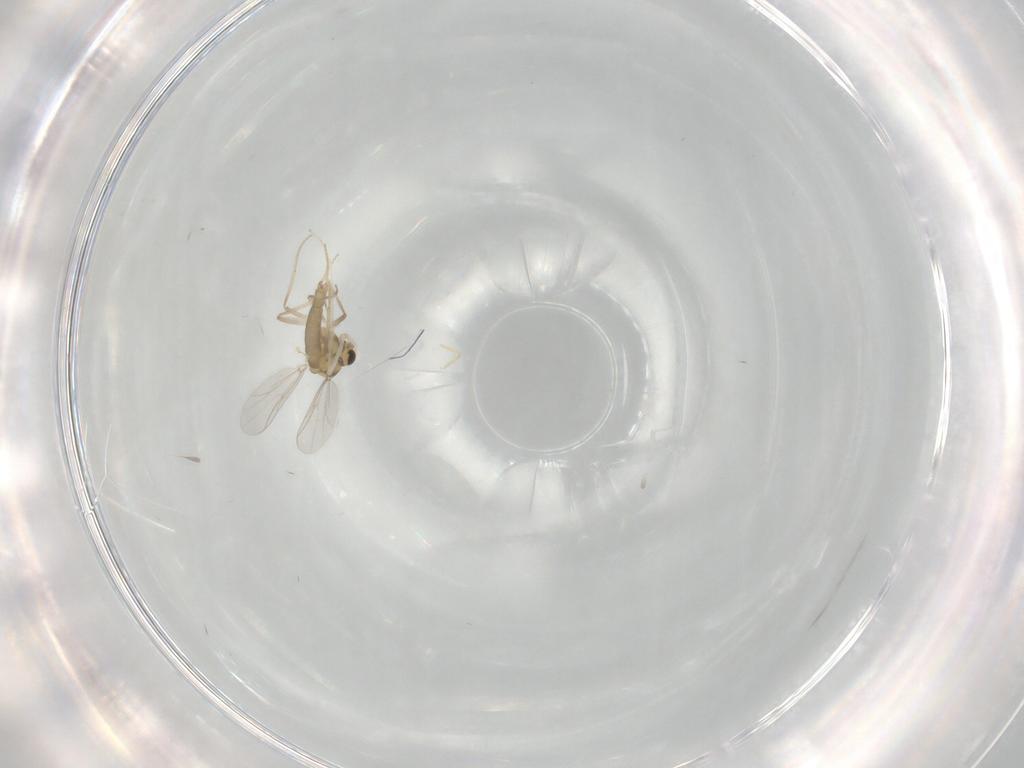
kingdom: Animalia
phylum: Arthropoda
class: Insecta
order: Diptera
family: Chironomidae
